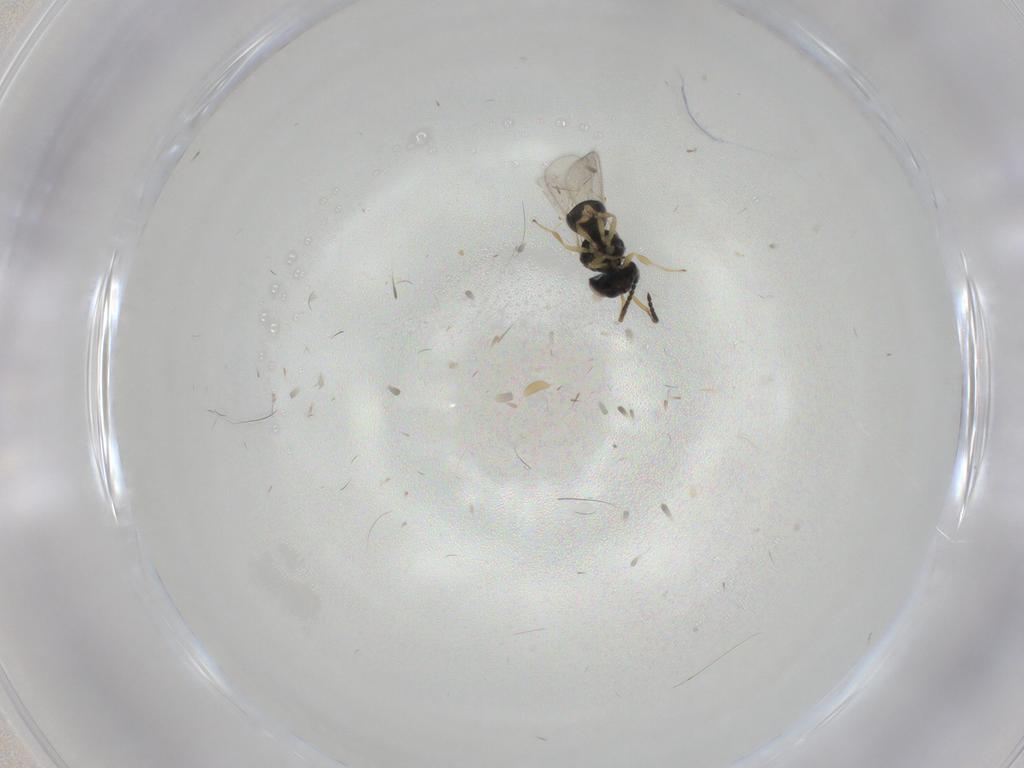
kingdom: Animalia
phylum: Arthropoda
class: Insecta
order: Hymenoptera
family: Scelionidae
